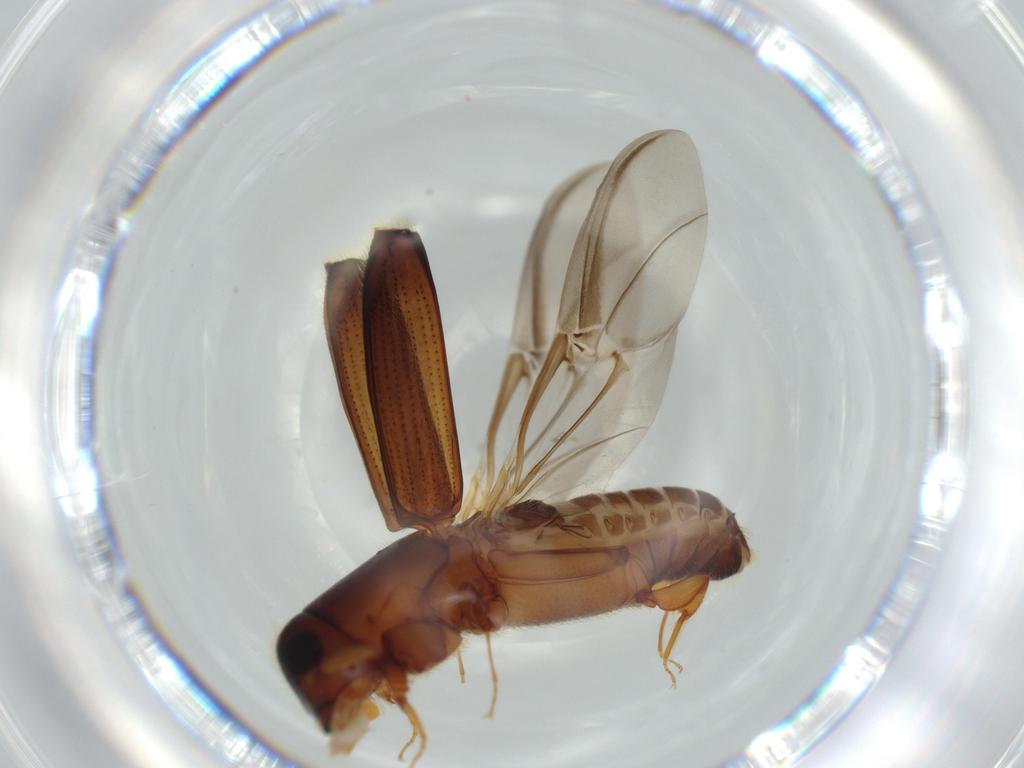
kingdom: Animalia
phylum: Arthropoda
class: Insecta
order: Coleoptera
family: Curculionidae
